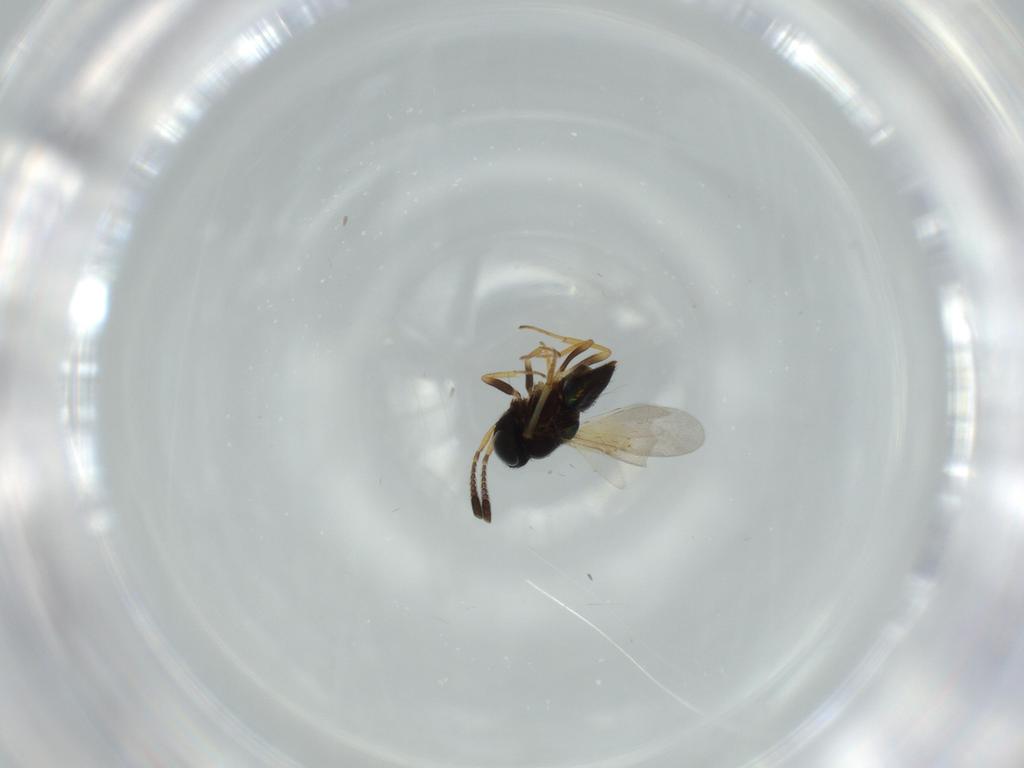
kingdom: Animalia
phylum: Arthropoda
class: Insecta
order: Hymenoptera
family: Encyrtidae
